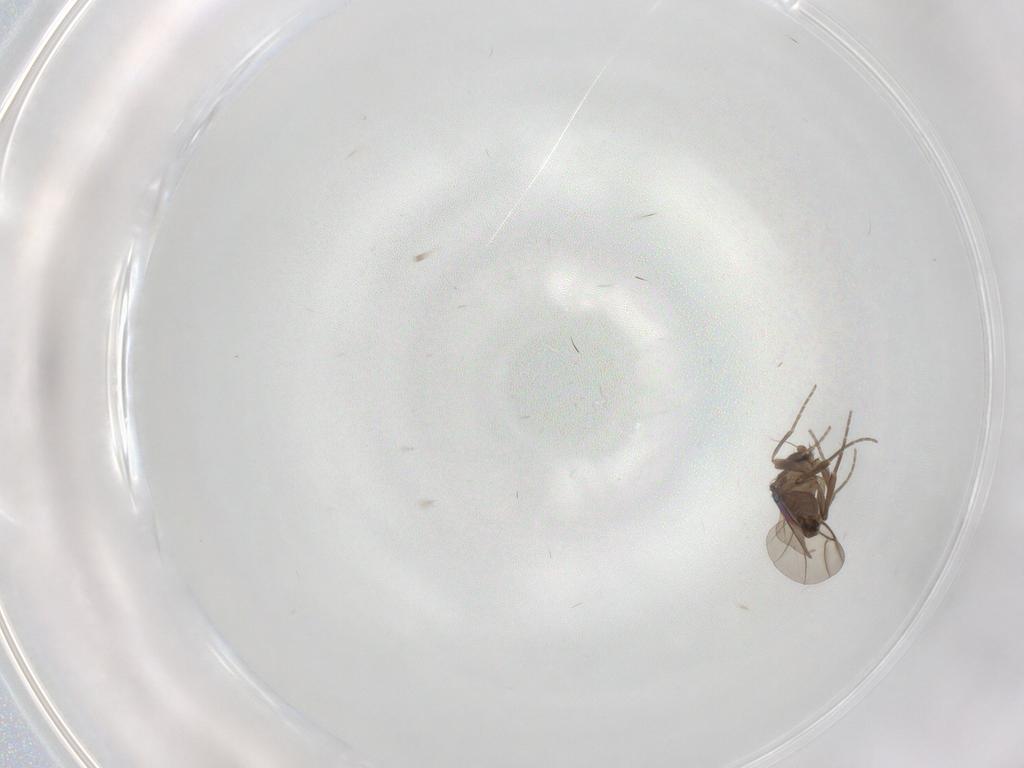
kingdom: Animalia
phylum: Arthropoda
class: Insecta
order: Diptera
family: Phoridae
